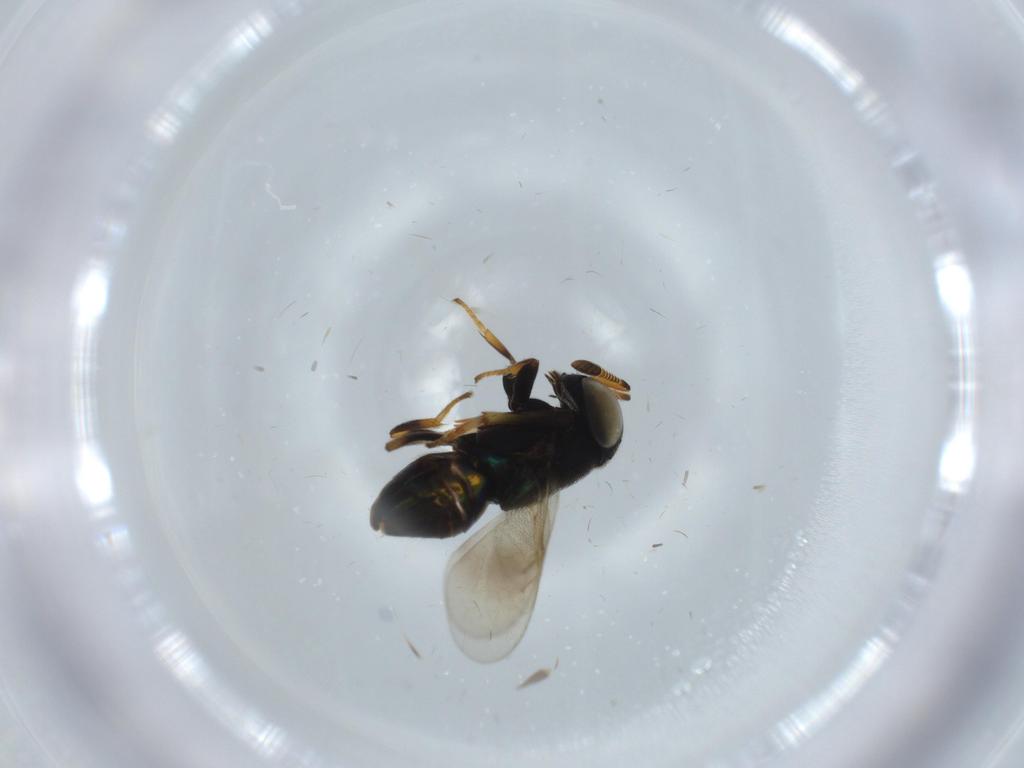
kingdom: Animalia
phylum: Arthropoda
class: Insecta
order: Hymenoptera
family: Encyrtidae
